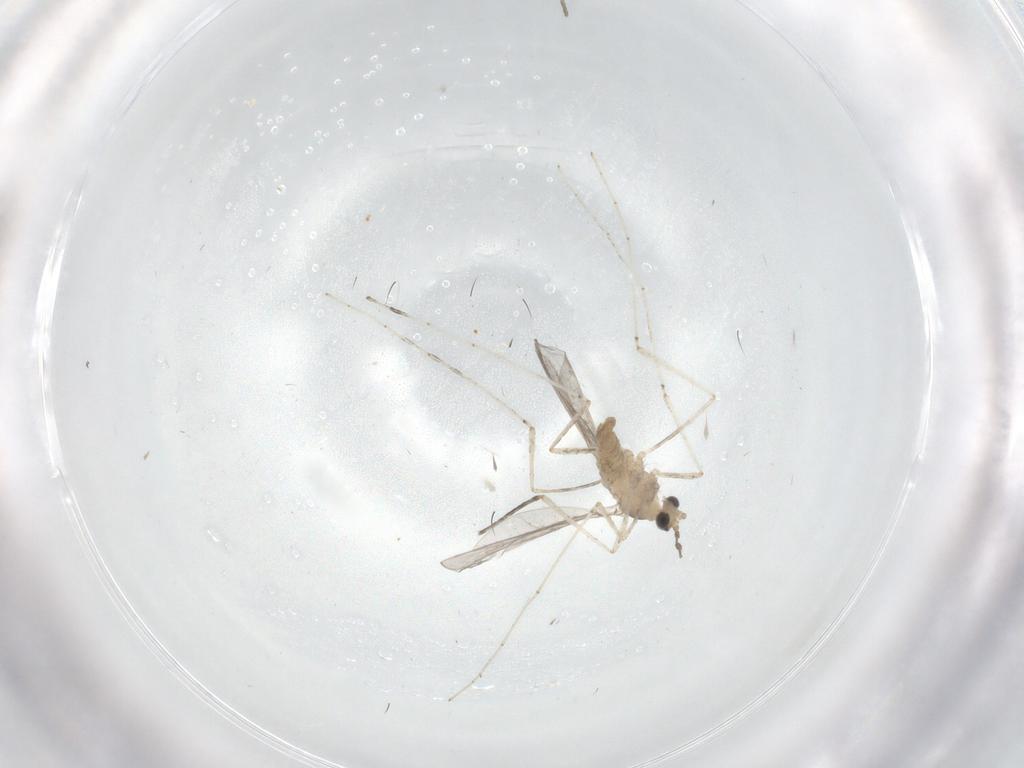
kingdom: Animalia
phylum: Arthropoda
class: Insecta
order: Diptera
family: Cecidomyiidae
